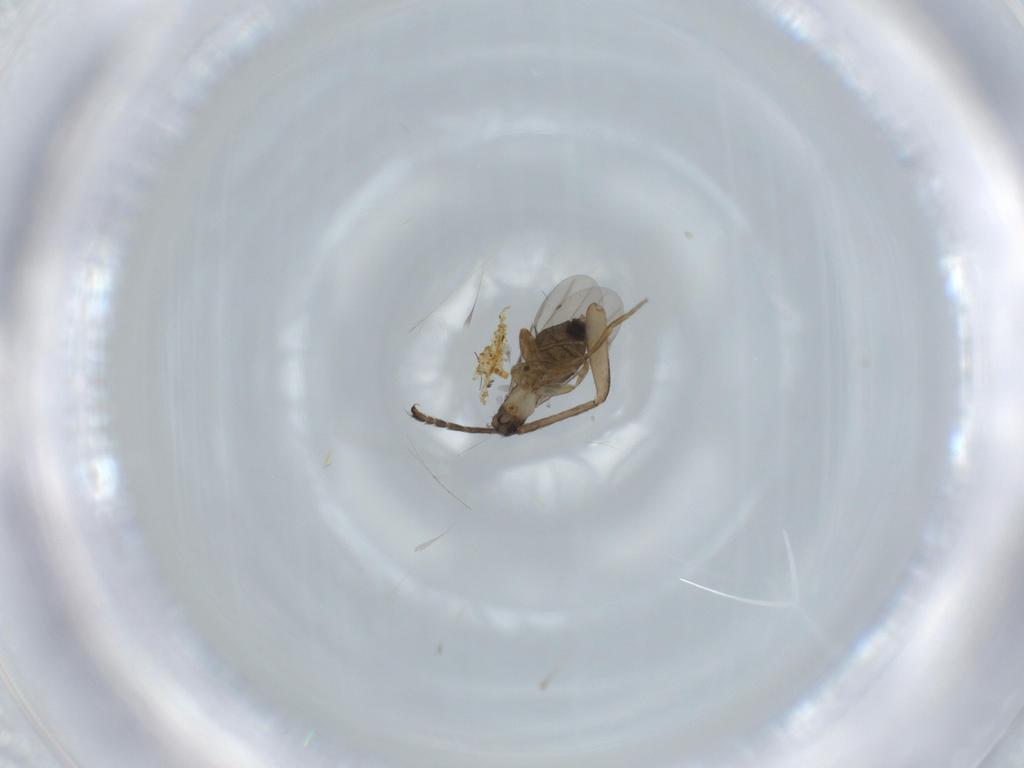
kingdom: Animalia
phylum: Arthropoda
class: Insecta
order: Diptera
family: Phoridae
